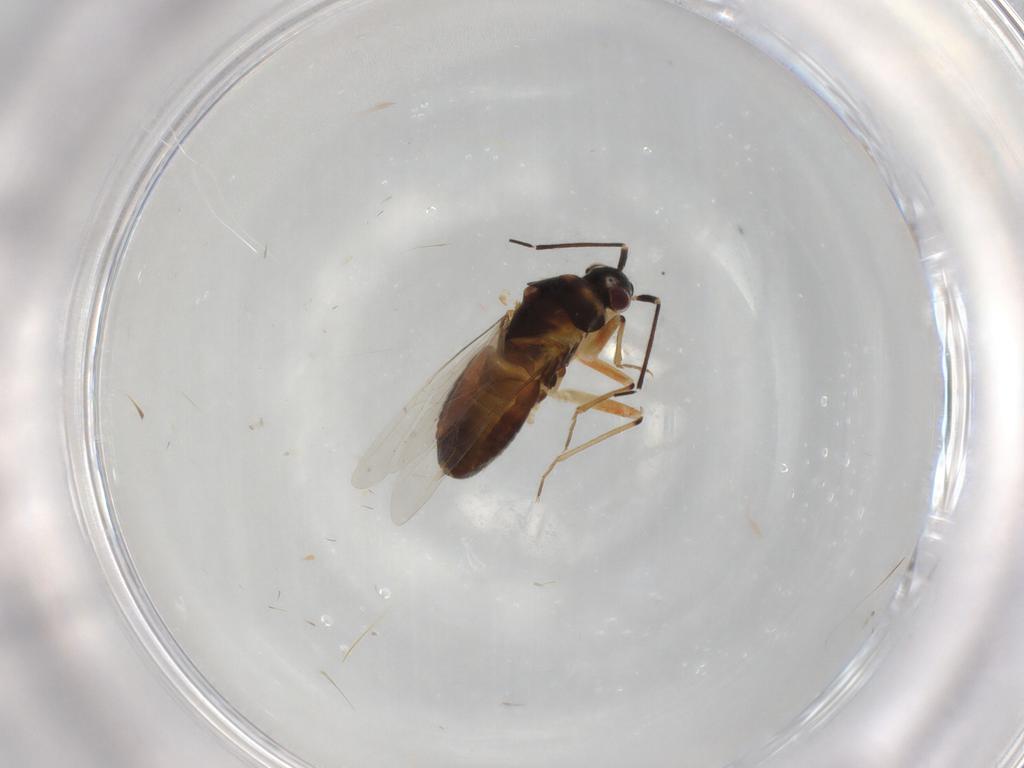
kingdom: Animalia
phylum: Arthropoda
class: Insecta
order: Hemiptera
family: Miridae
